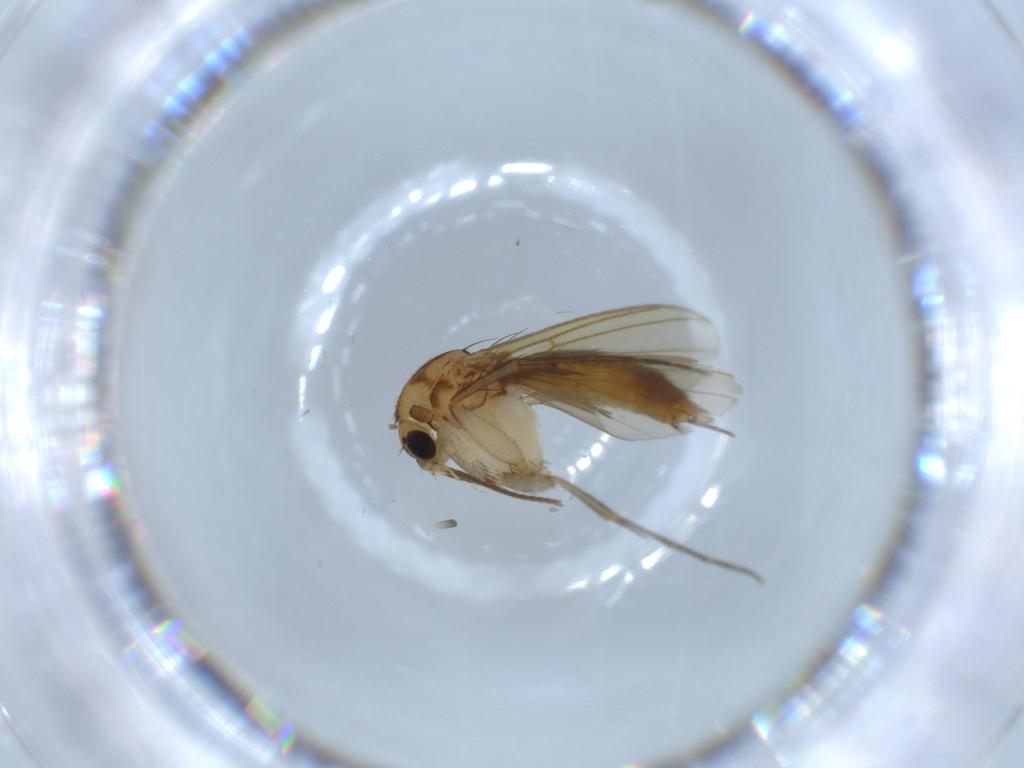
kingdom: Animalia
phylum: Arthropoda
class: Insecta
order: Diptera
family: Mycetophilidae
